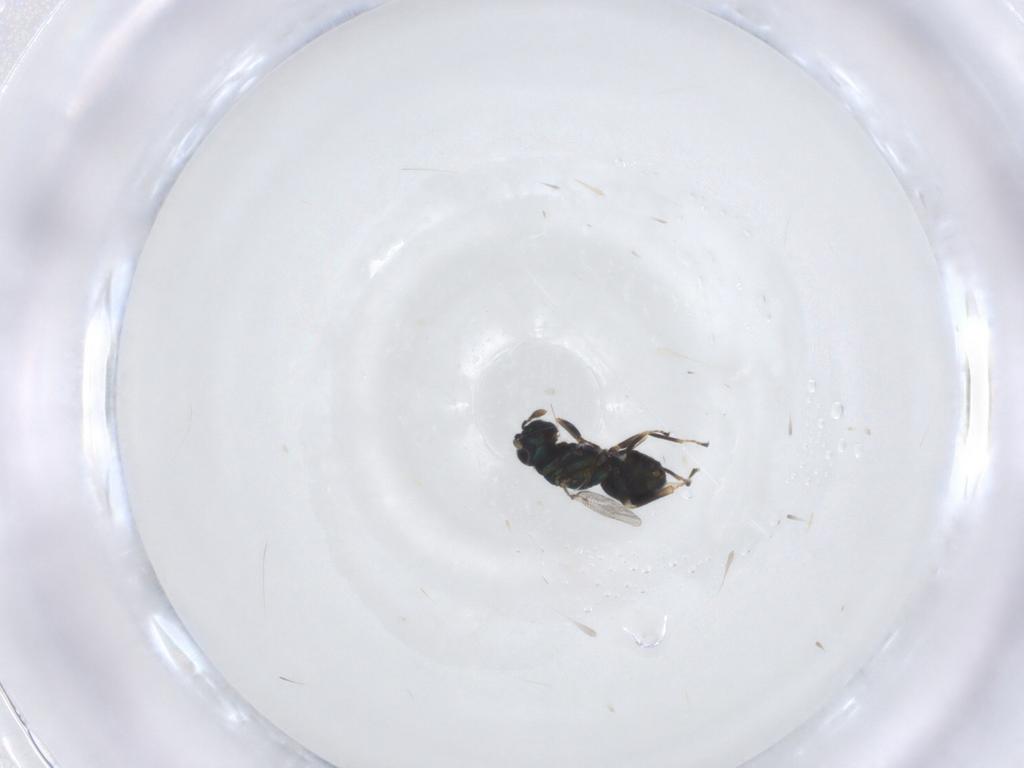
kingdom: Animalia
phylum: Arthropoda
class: Insecta
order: Hymenoptera
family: Eulophidae
